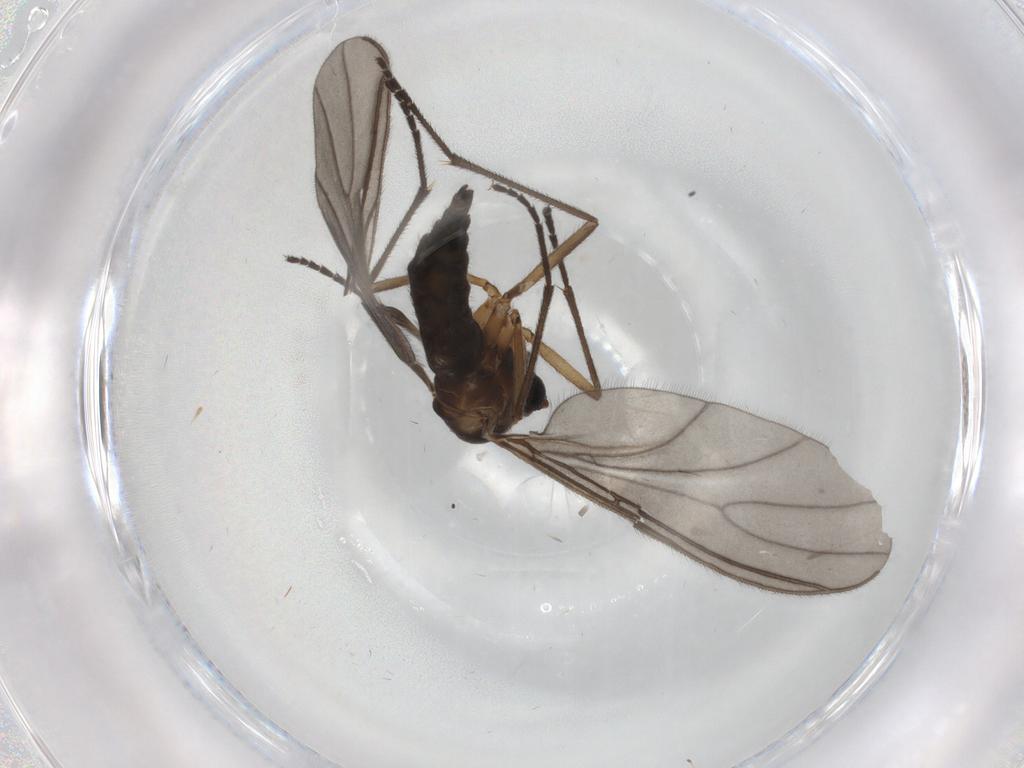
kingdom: Animalia
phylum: Arthropoda
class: Insecta
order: Diptera
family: Sciaridae
